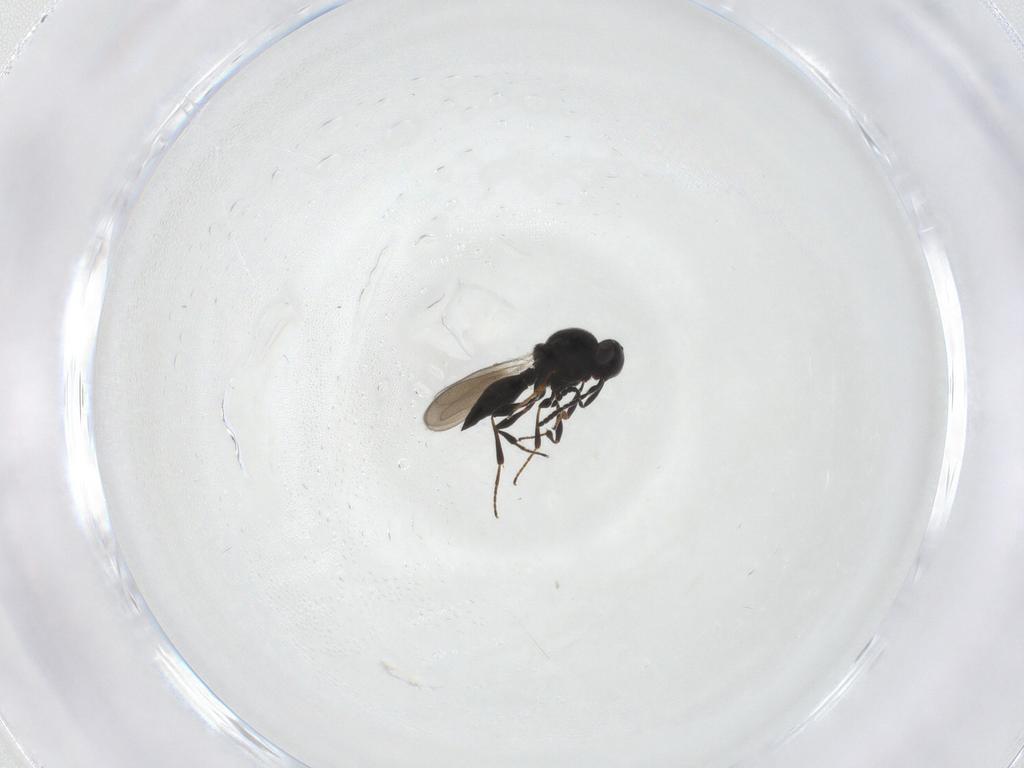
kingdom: Animalia
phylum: Arthropoda
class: Insecta
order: Hymenoptera
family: Platygastridae
